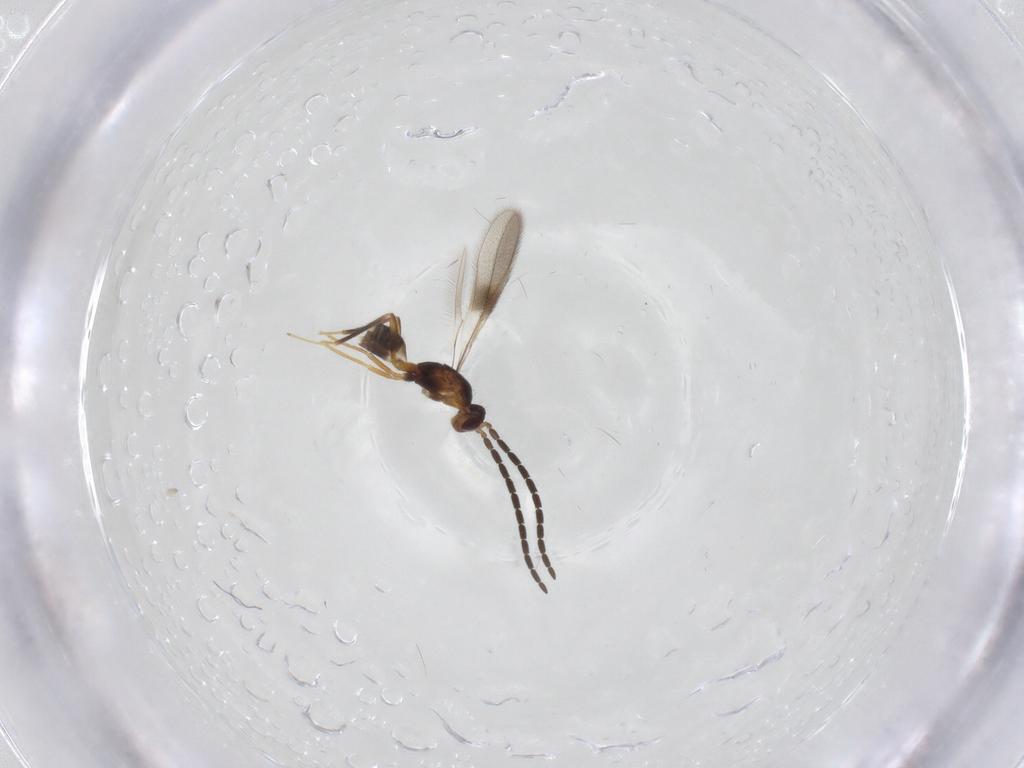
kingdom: Animalia
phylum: Arthropoda
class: Insecta
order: Hymenoptera
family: Mymaridae
